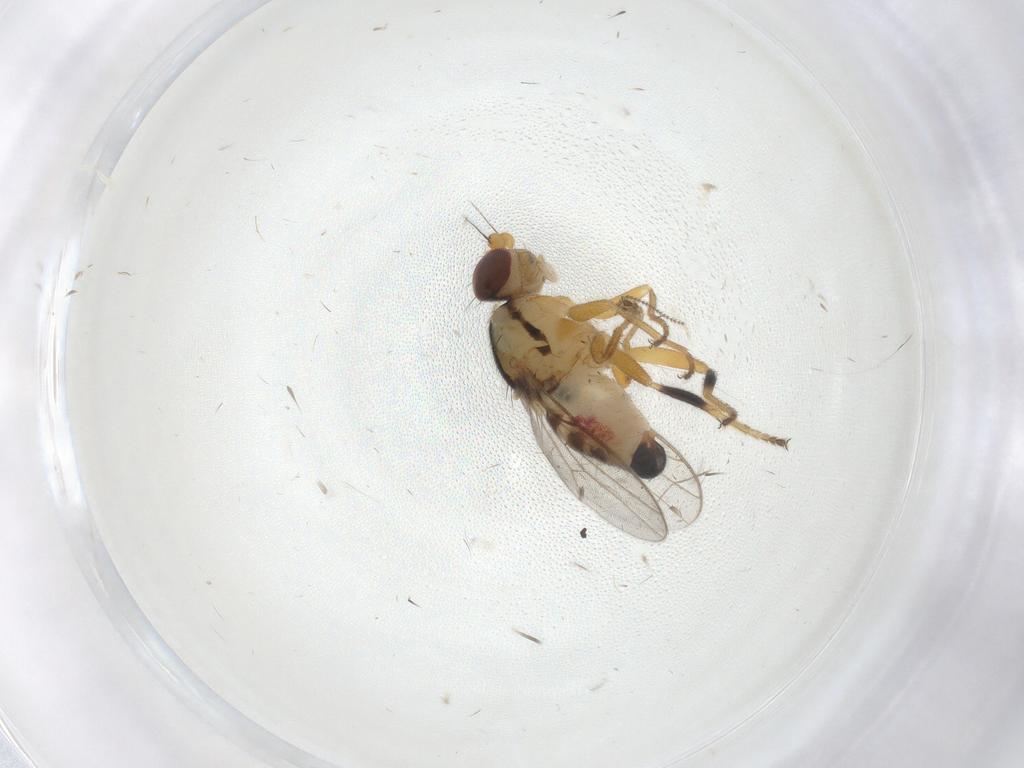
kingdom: Animalia
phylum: Arthropoda
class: Insecta
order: Diptera
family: Chloropidae
